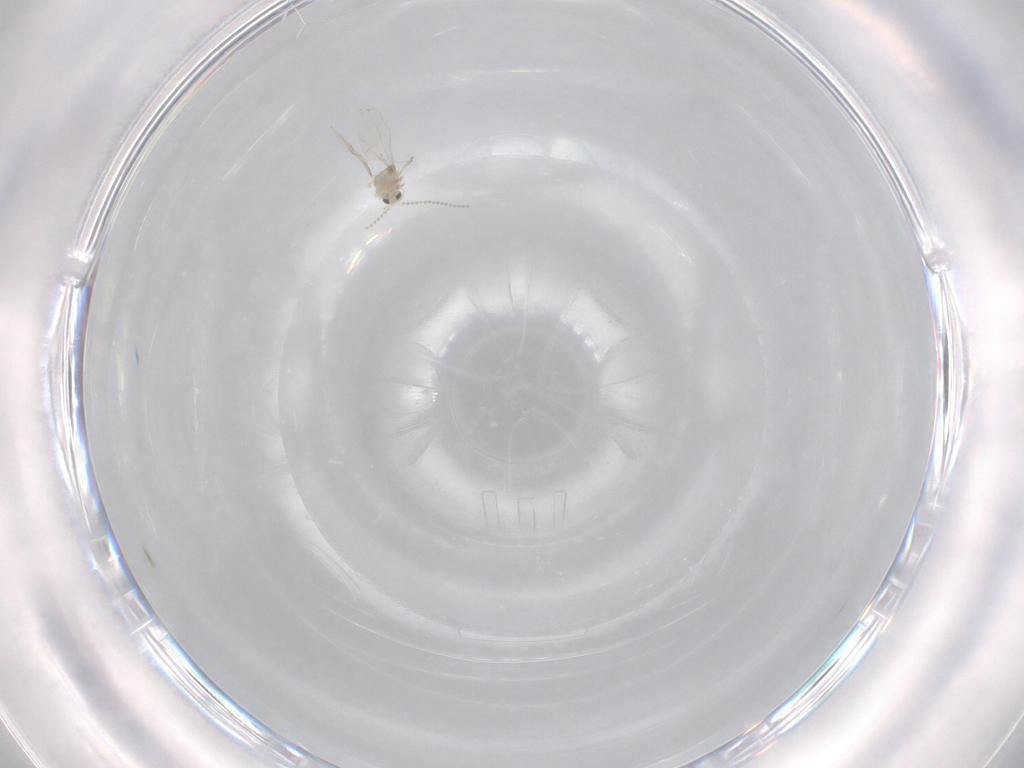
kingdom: Animalia
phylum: Arthropoda
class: Insecta
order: Diptera
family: Cecidomyiidae
